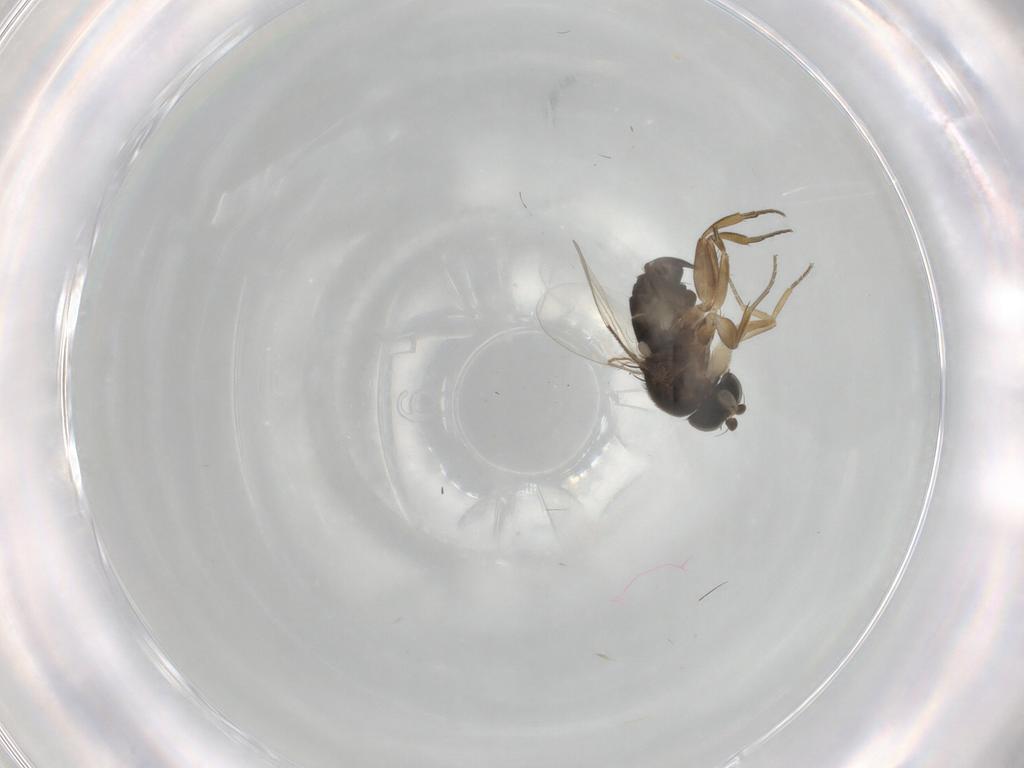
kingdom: Animalia
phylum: Arthropoda
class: Insecta
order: Diptera
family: Phoridae
